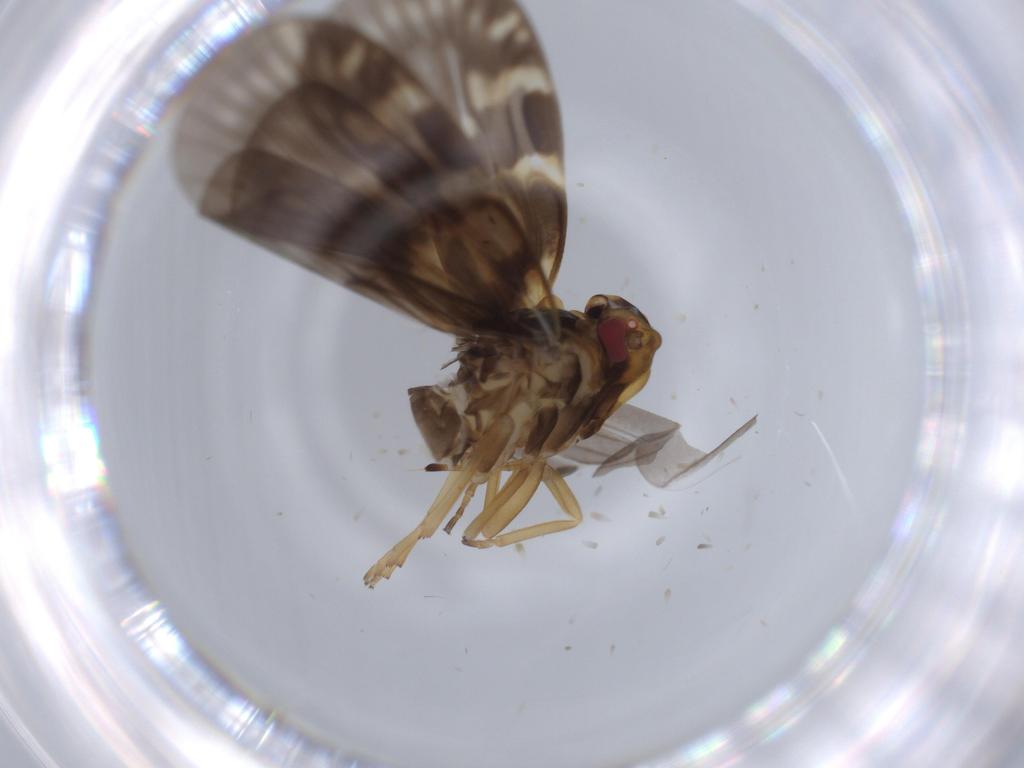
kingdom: Animalia
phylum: Arthropoda
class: Insecta
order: Hemiptera
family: Cixiidae
